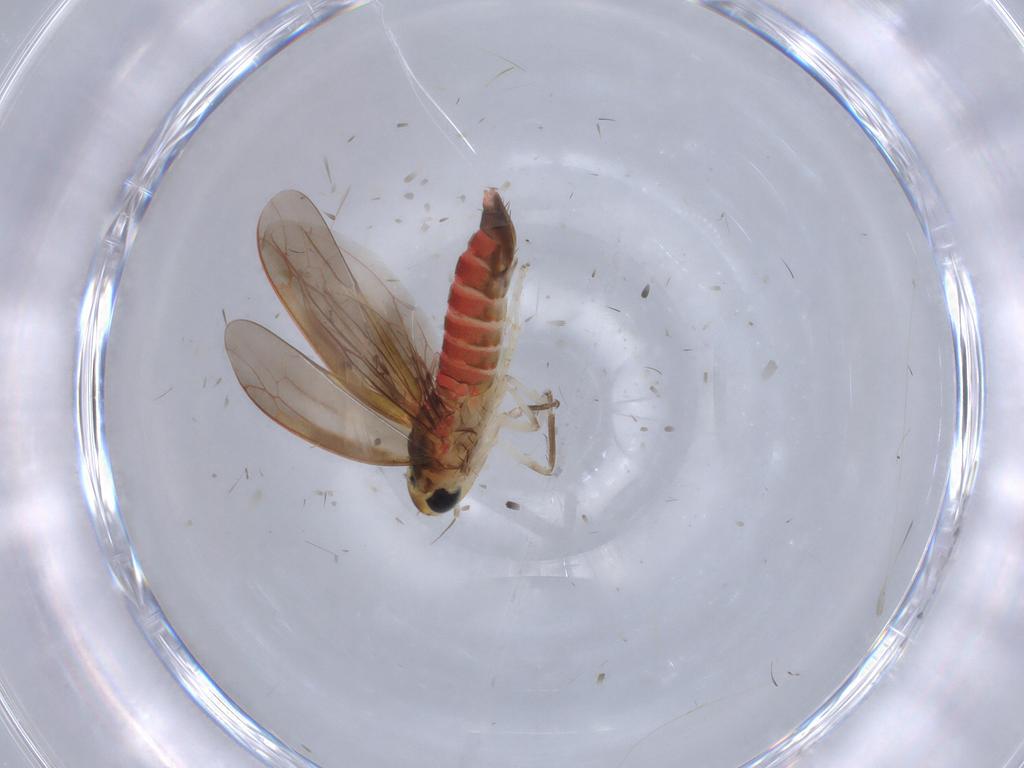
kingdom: Animalia
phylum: Arthropoda
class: Insecta
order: Hemiptera
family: Cicadellidae
